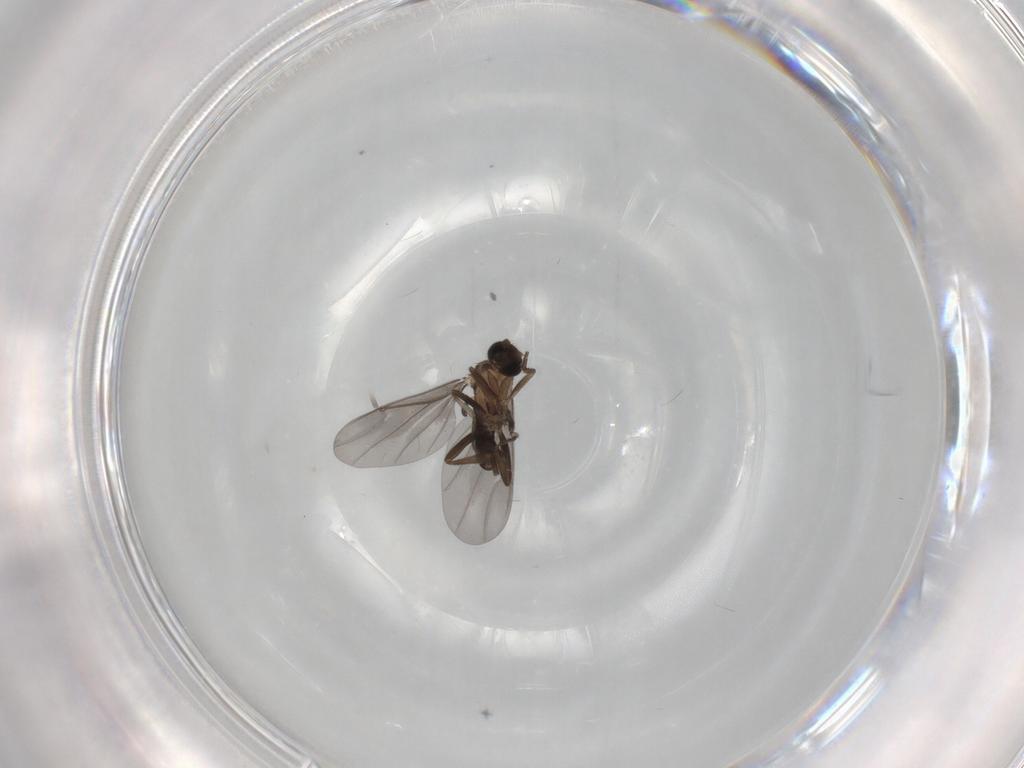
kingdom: Animalia
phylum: Arthropoda
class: Insecta
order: Diptera
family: Phoridae
